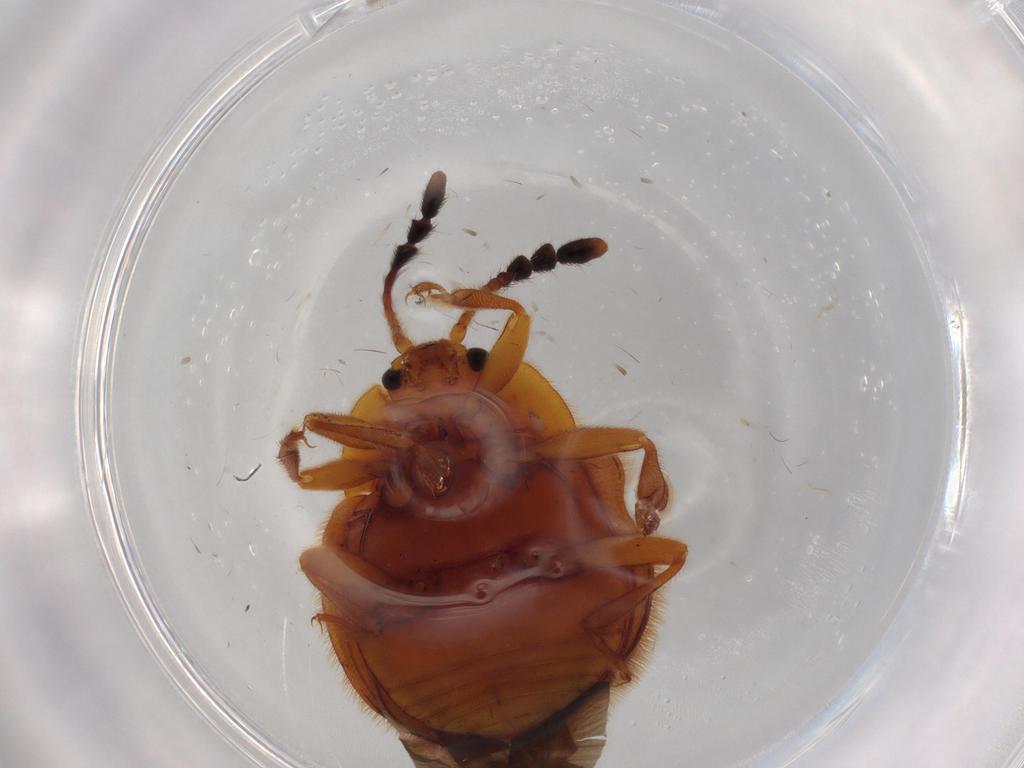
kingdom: Animalia
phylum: Arthropoda
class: Insecta
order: Coleoptera
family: Endomychidae
